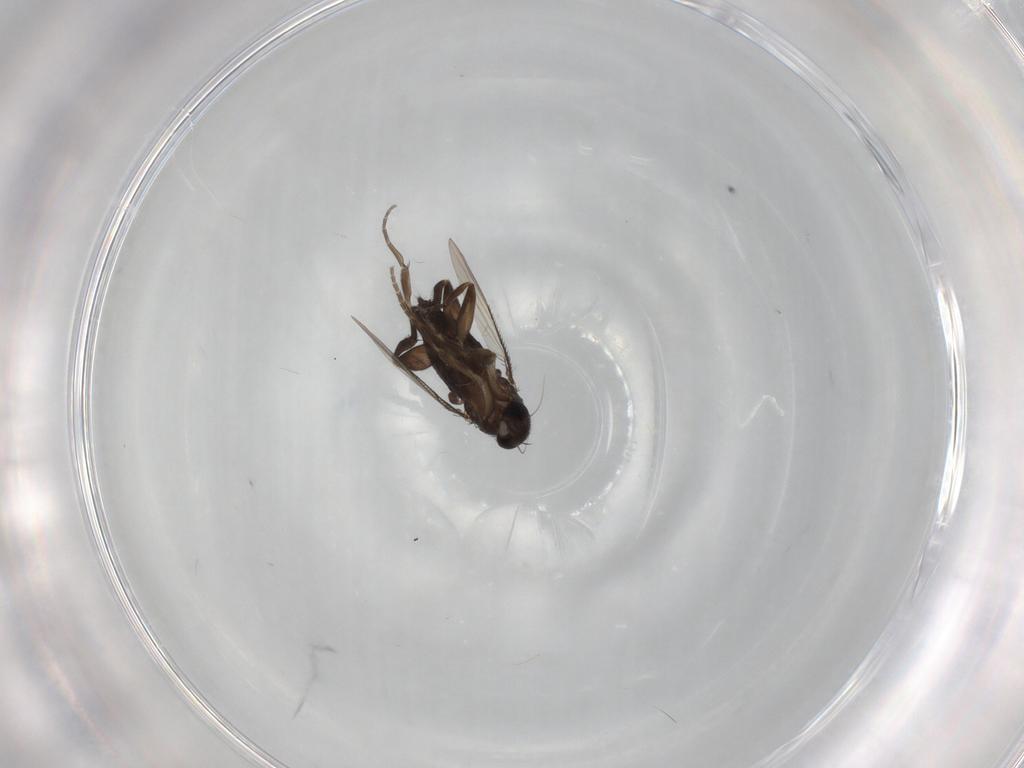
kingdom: Animalia
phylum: Arthropoda
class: Insecta
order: Diptera
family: Phoridae
